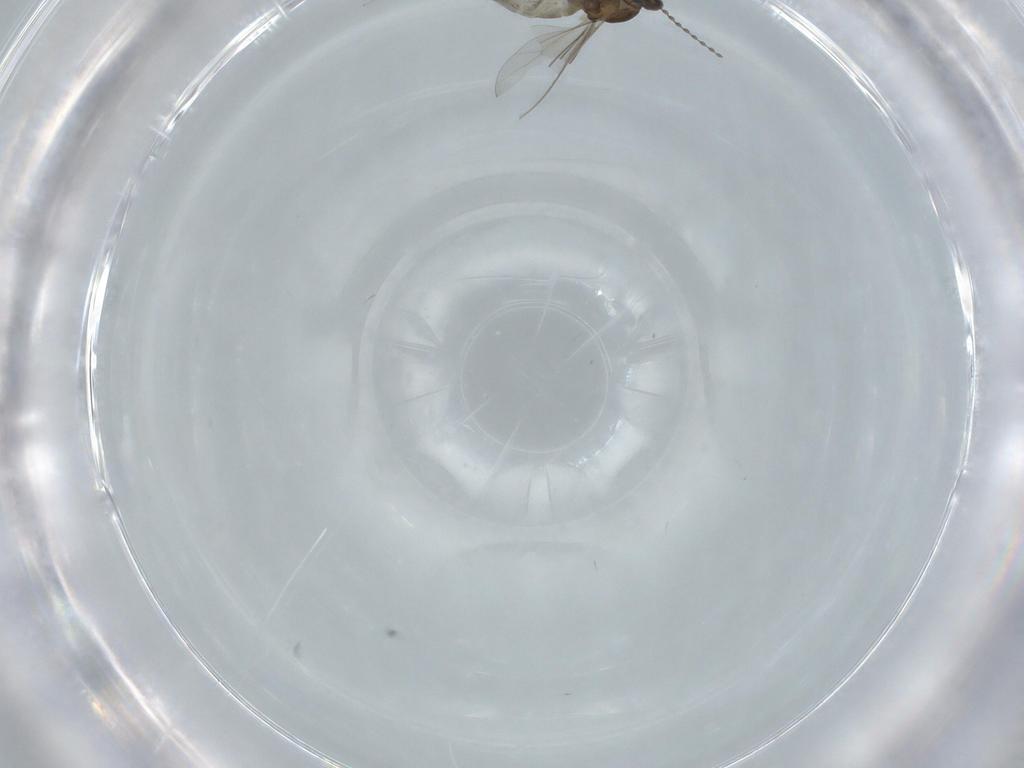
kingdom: Animalia
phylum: Arthropoda
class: Insecta
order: Diptera
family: Cecidomyiidae
